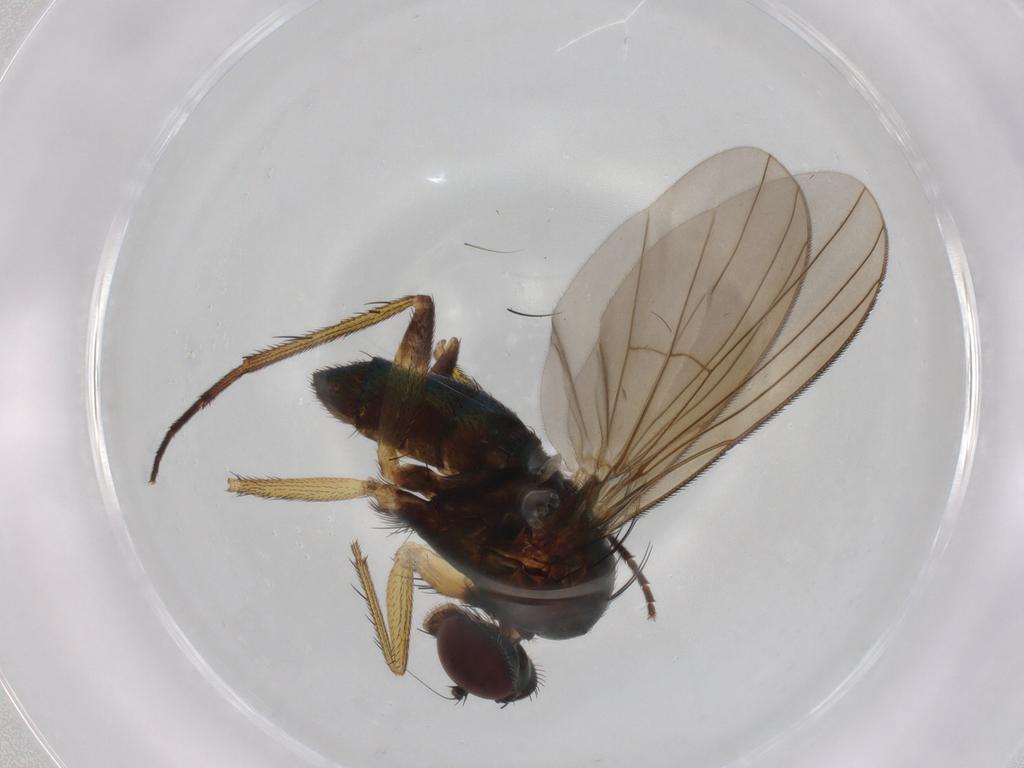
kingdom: Animalia
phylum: Arthropoda
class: Insecta
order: Diptera
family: Dolichopodidae
